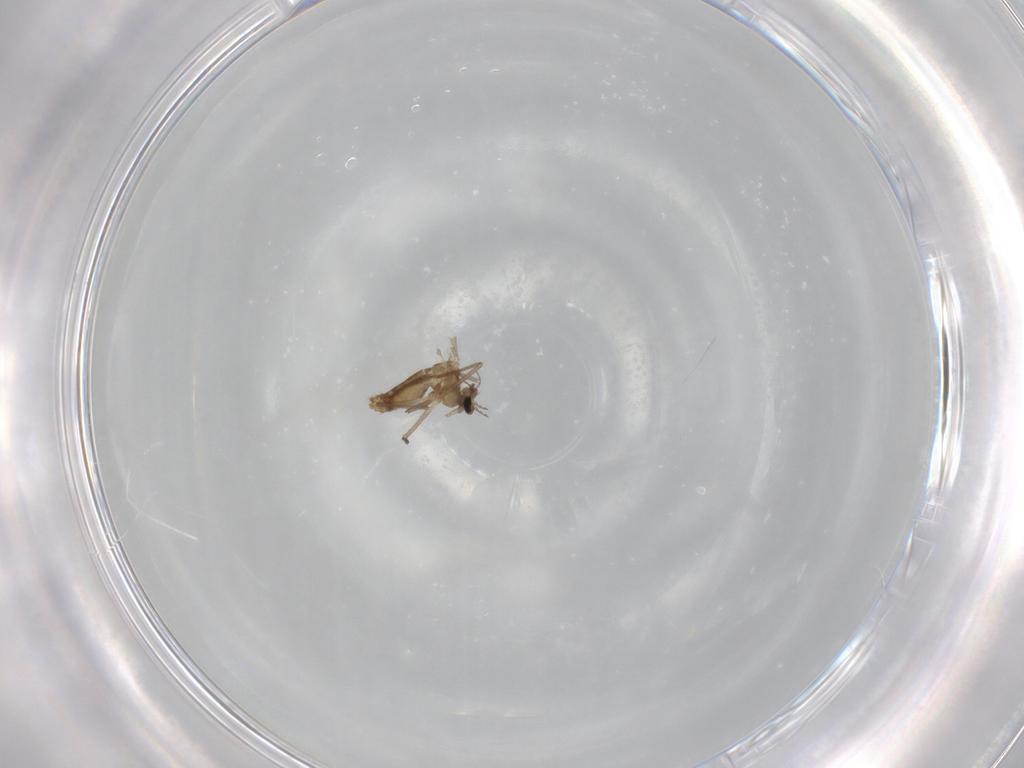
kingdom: Animalia
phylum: Arthropoda
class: Insecta
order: Diptera
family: Chironomidae
